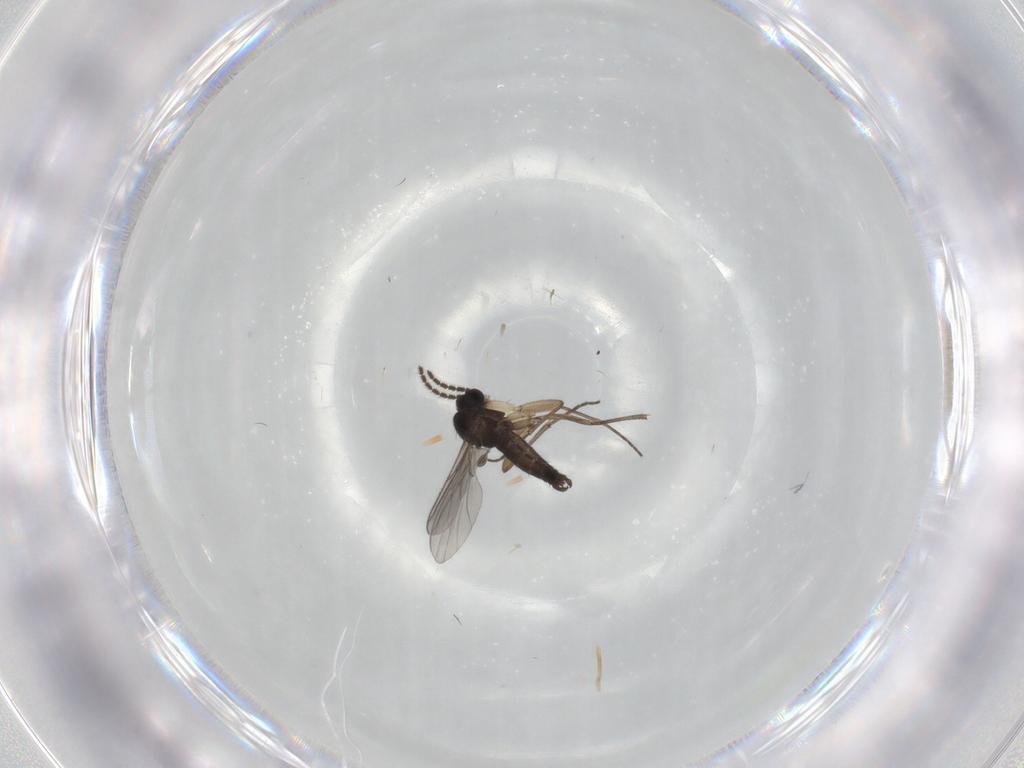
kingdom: Animalia
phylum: Arthropoda
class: Insecta
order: Diptera
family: Sciaridae
